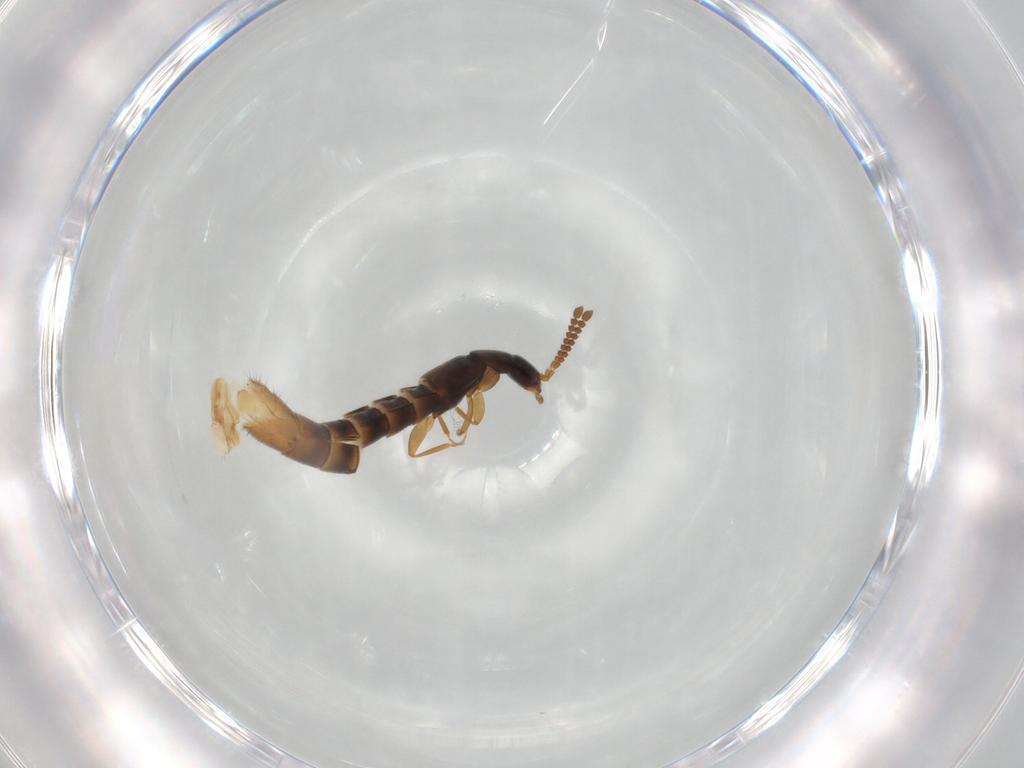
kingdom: Animalia
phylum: Arthropoda
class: Insecta
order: Coleoptera
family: Staphylinidae
